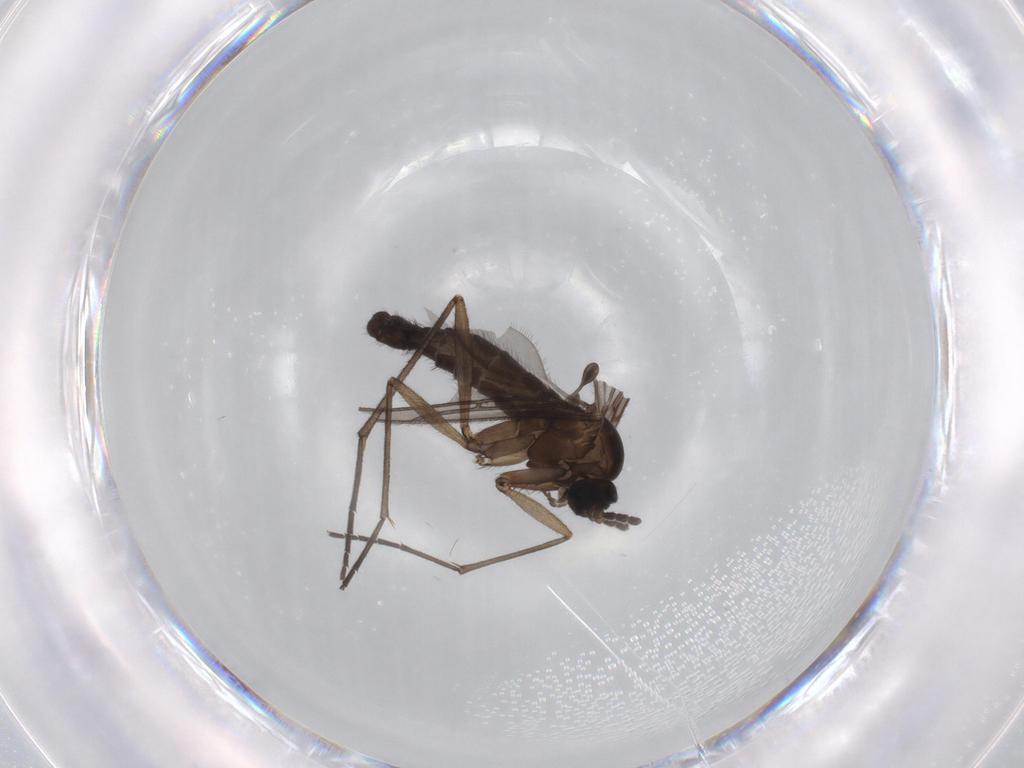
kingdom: Animalia
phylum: Arthropoda
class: Insecta
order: Diptera
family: Sciaridae
